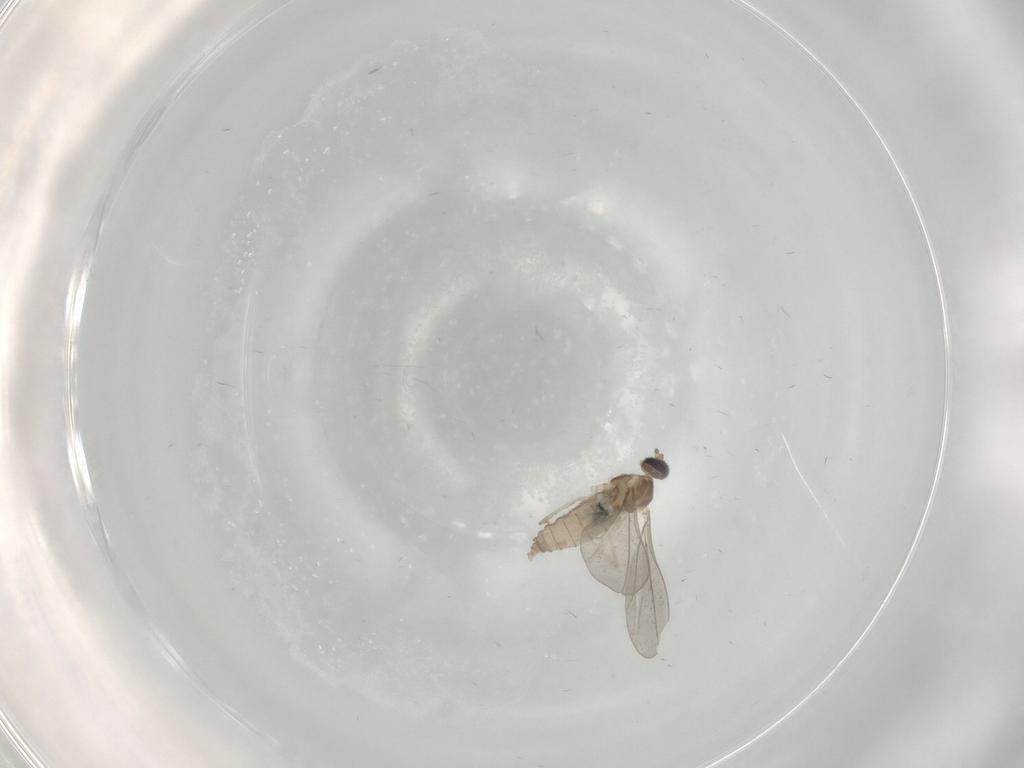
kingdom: Animalia
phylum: Arthropoda
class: Insecta
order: Diptera
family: Cecidomyiidae
